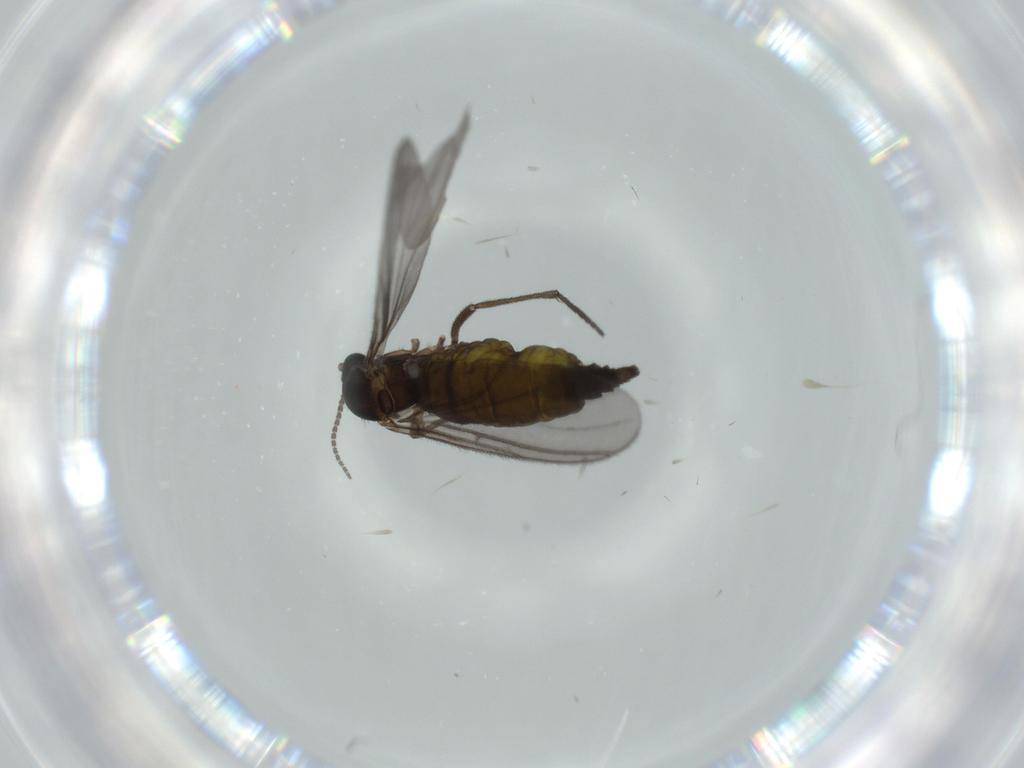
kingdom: Animalia
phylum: Arthropoda
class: Insecta
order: Diptera
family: Sciaridae
